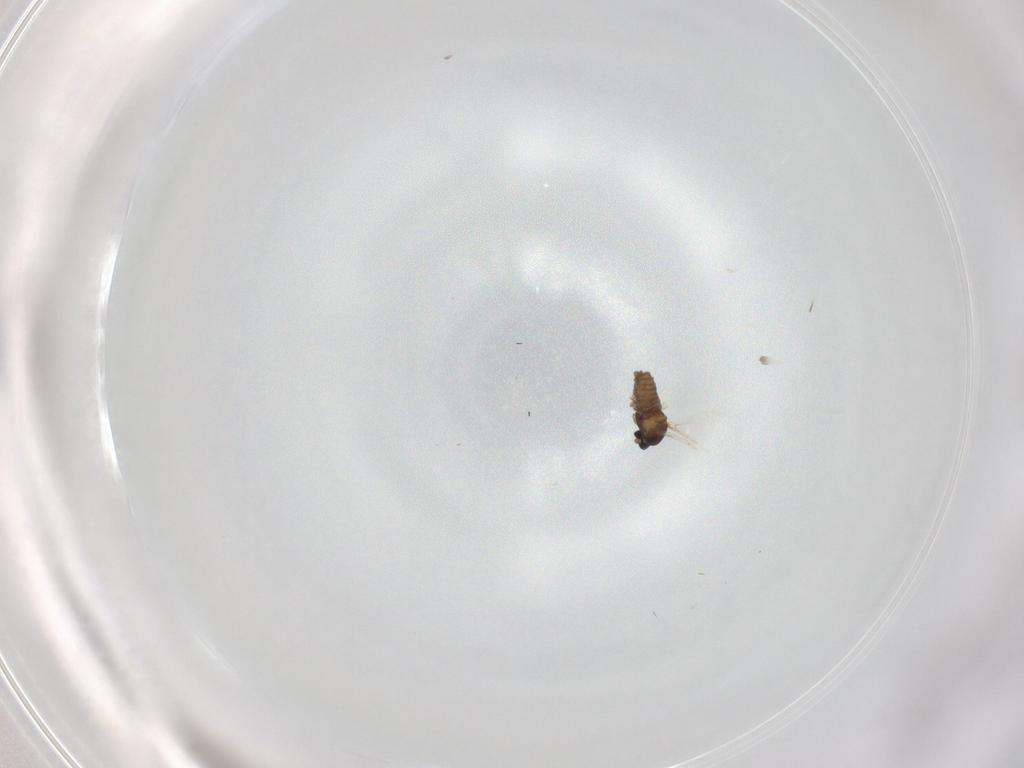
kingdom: Animalia
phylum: Arthropoda
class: Insecta
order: Diptera
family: Cecidomyiidae
